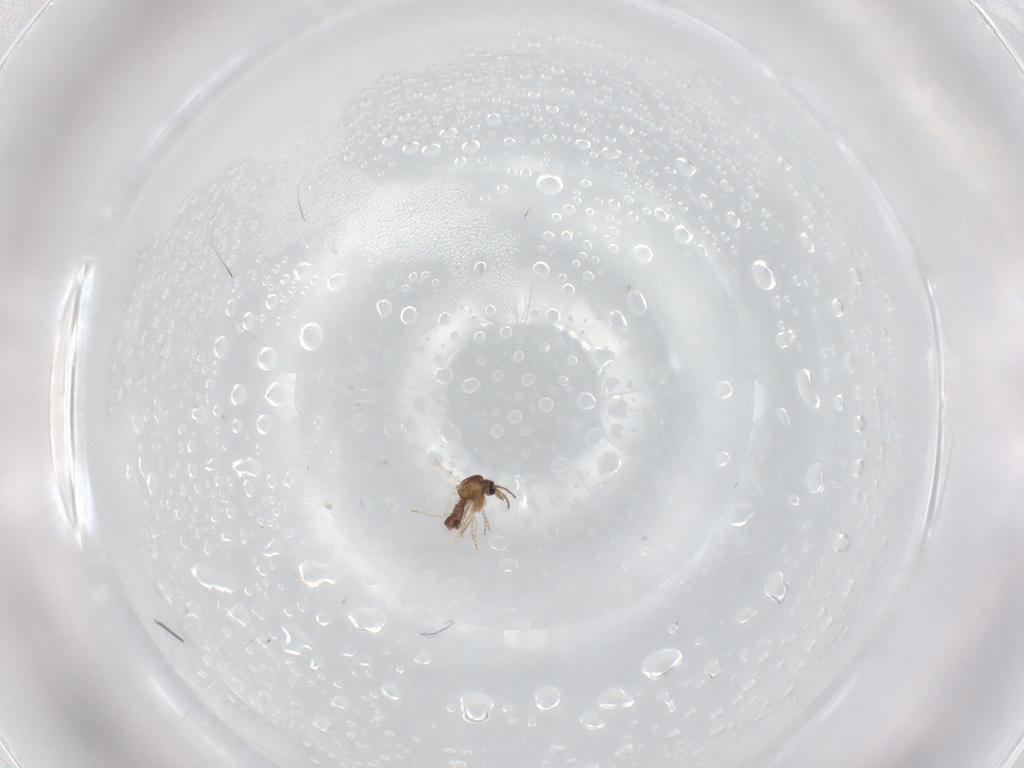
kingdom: Animalia
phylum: Arthropoda
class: Insecta
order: Diptera
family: Ceratopogonidae
